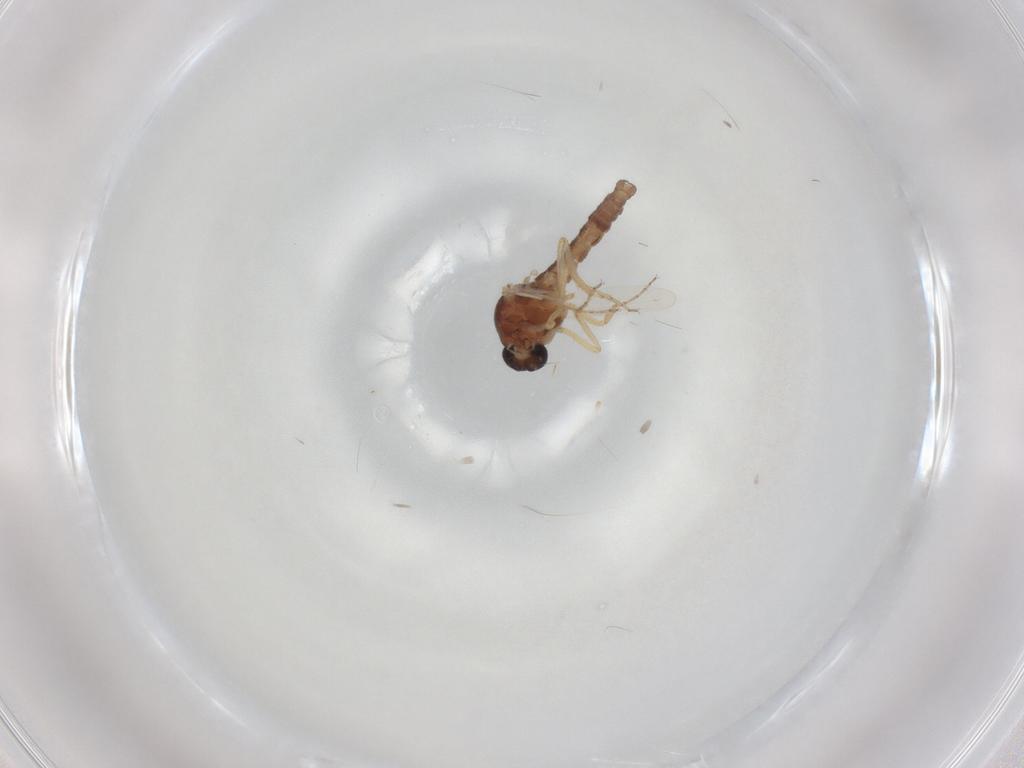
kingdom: Animalia
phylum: Arthropoda
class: Insecta
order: Diptera
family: Ceratopogonidae
